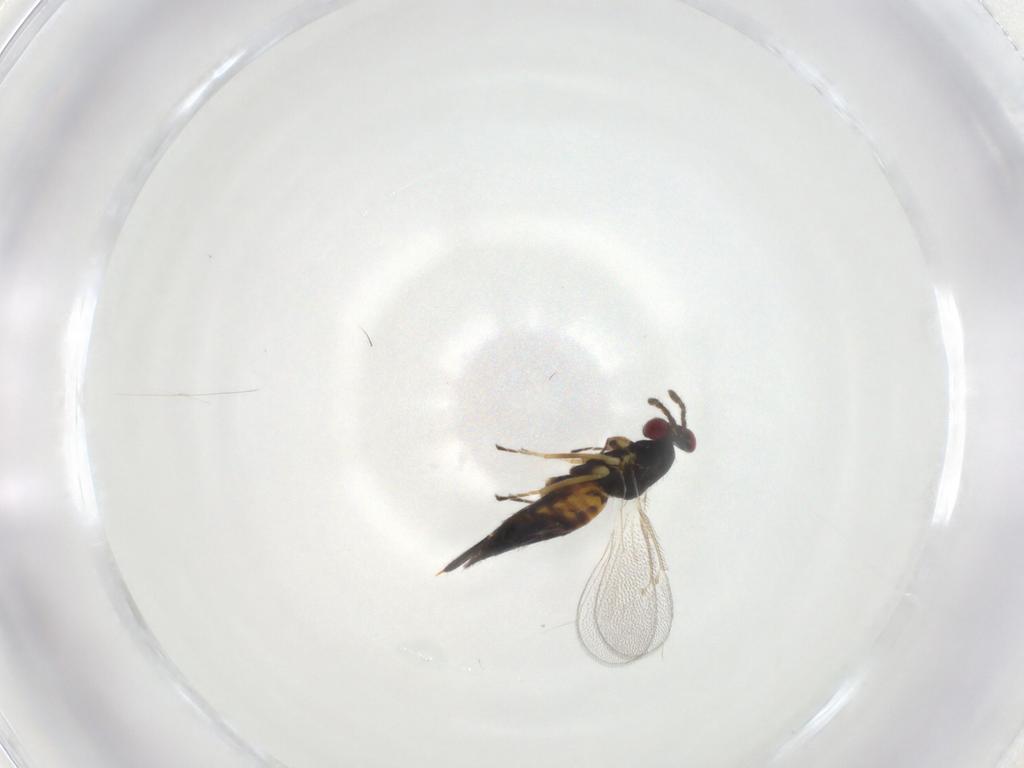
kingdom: Animalia
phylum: Arthropoda
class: Insecta
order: Hymenoptera
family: Eulophidae
